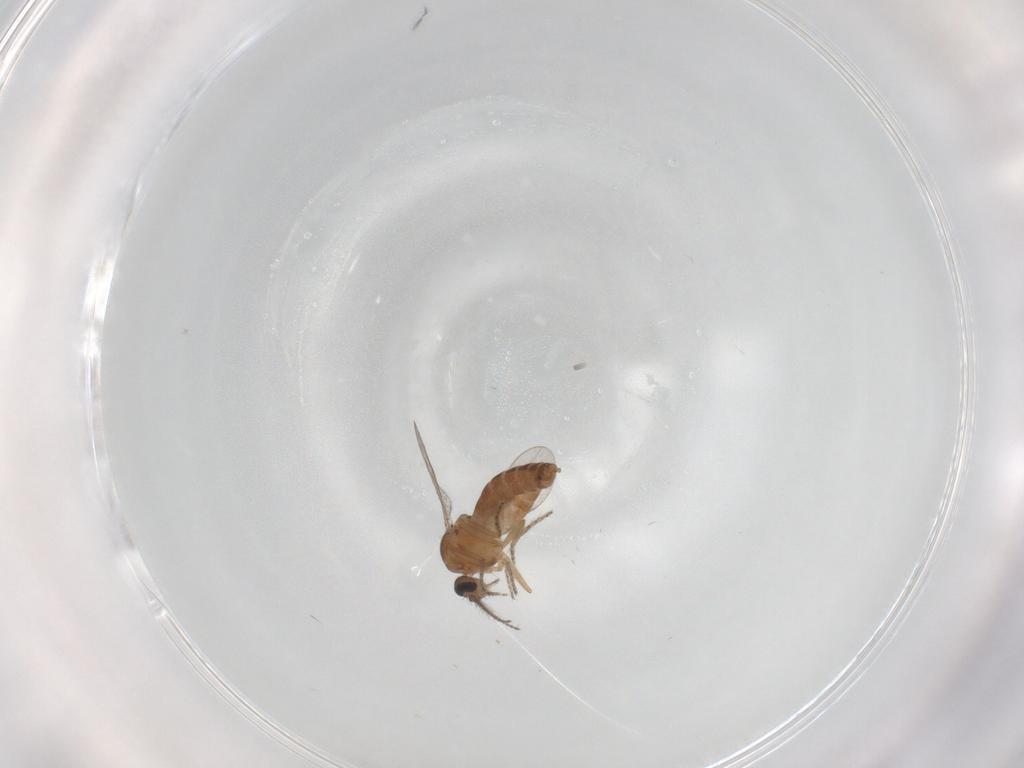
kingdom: Animalia
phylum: Arthropoda
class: Insecta
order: Diptera
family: Ceratopogonidae
